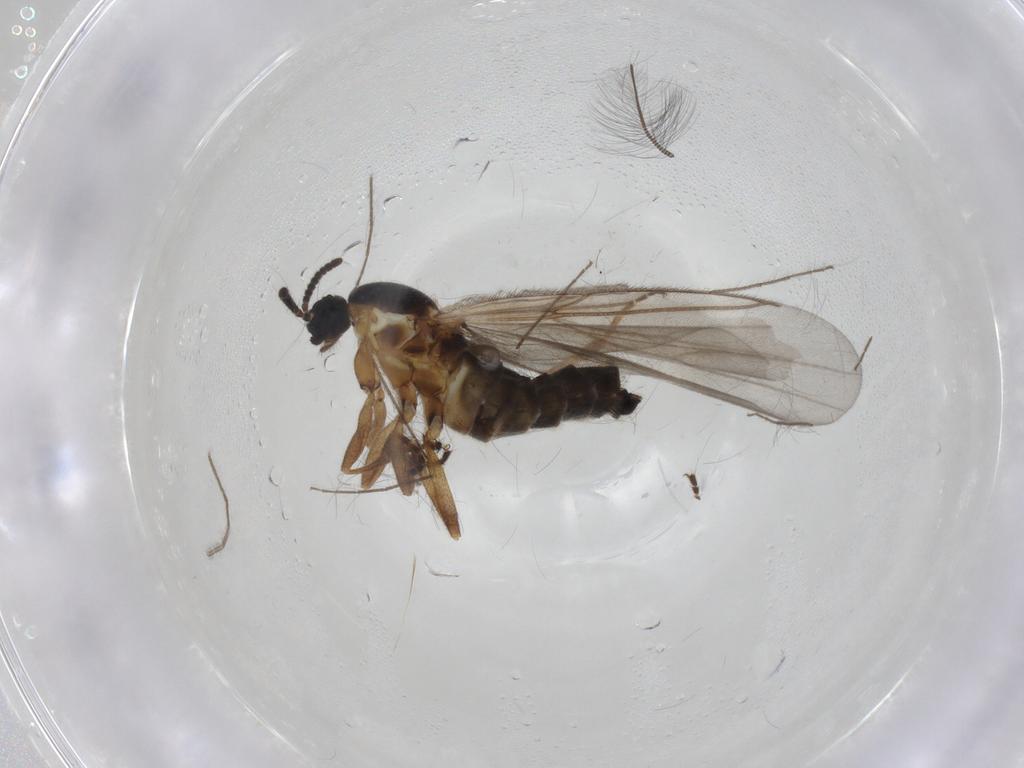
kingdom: Animalia
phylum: Arthropoda
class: Insecta
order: Diptera
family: Scatopsidae
